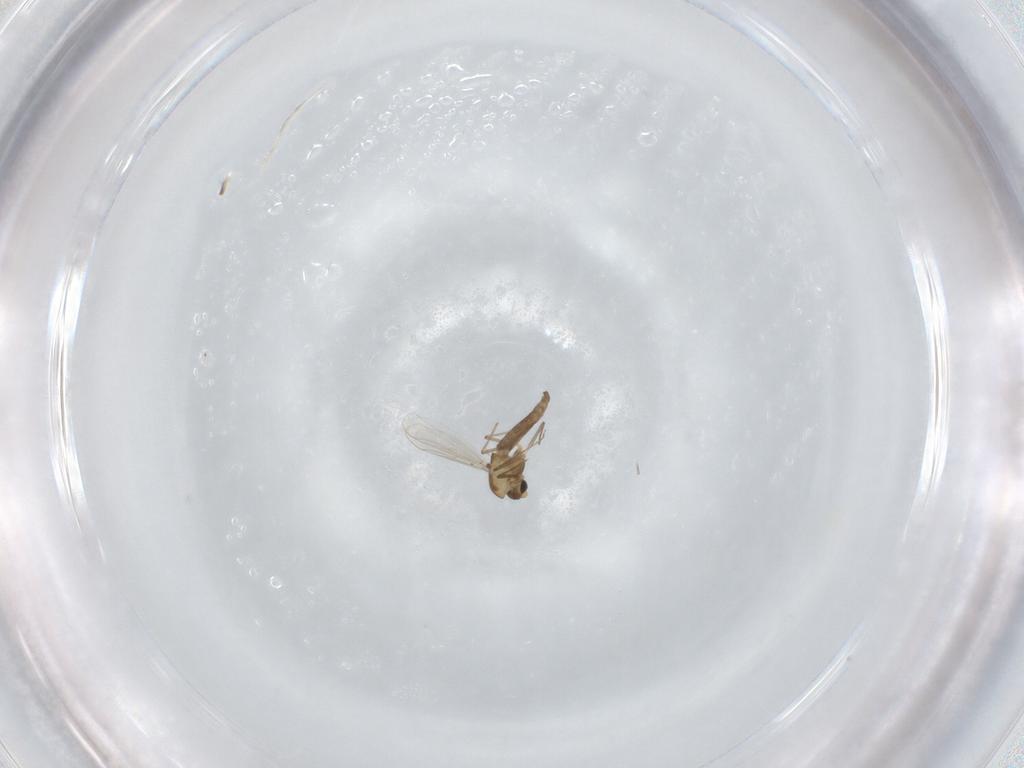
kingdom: Animalia
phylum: Arthropoda
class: Insecta
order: Diptera
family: Chironomidae
